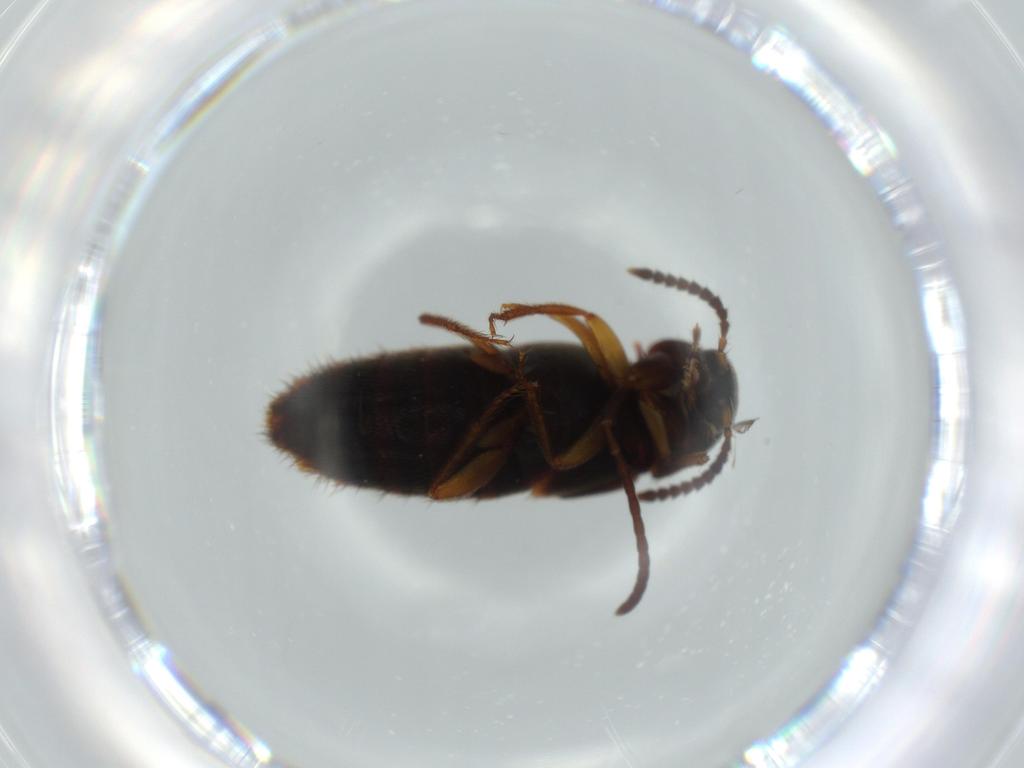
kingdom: Animalia
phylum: Arthropoda
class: Insecta
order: Coleoptera
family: Staphylinidae
